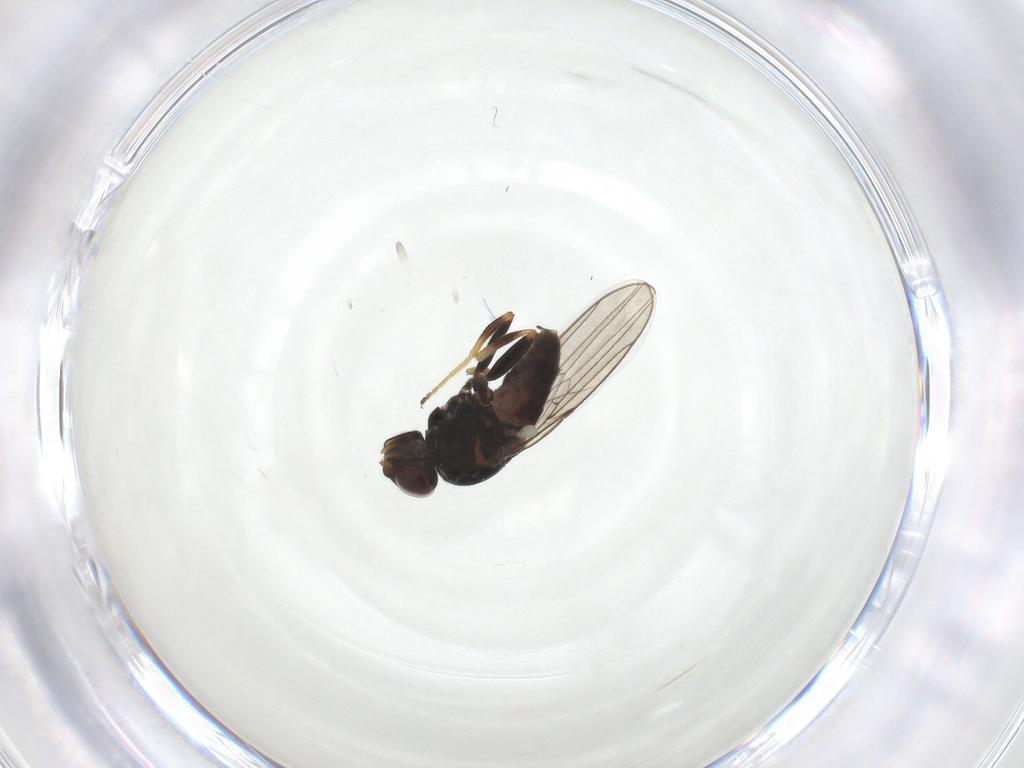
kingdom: Animalia
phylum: Arthropoda
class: Insecta
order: Diptera
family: Chloropidae
